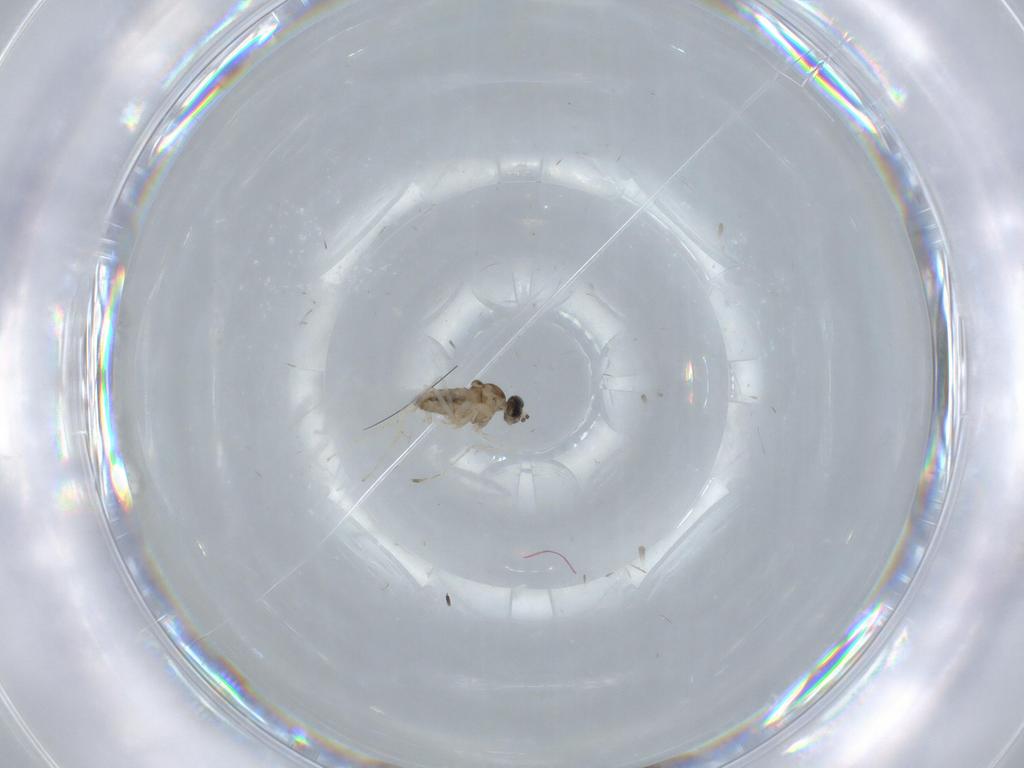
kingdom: Animalia
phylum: Arthropoda
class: Insecta
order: Diptera
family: Cecidomyiidae
